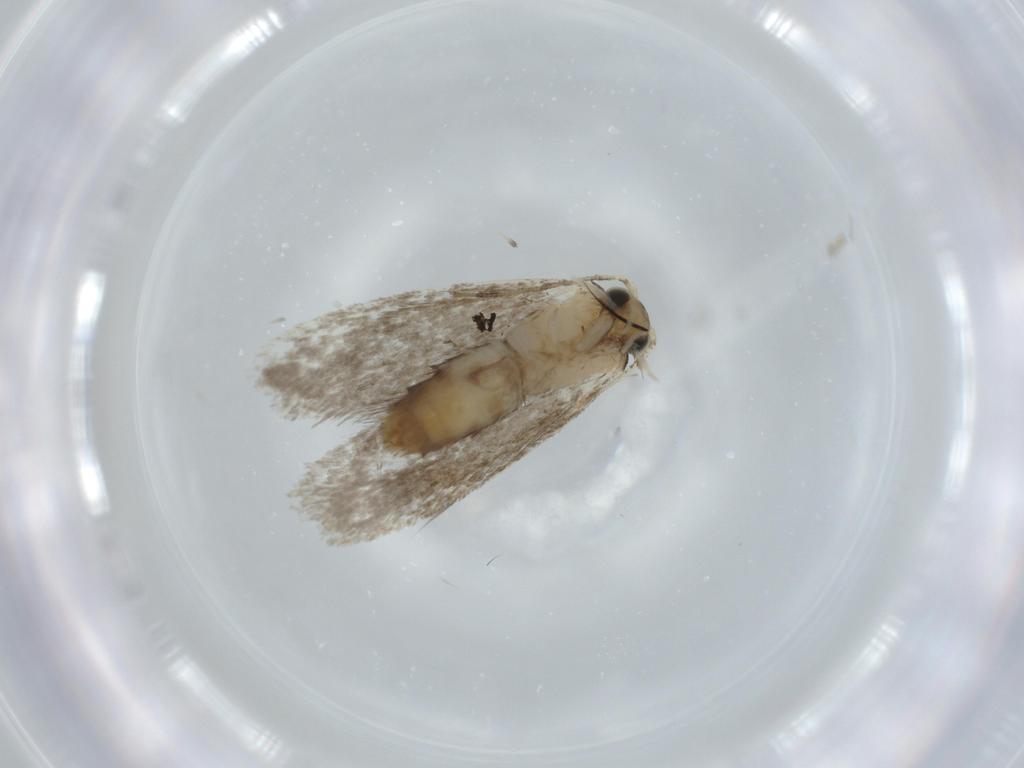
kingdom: Animalia
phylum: Arthropoda
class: Insecta
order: Lepidoptera
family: Tineidae
